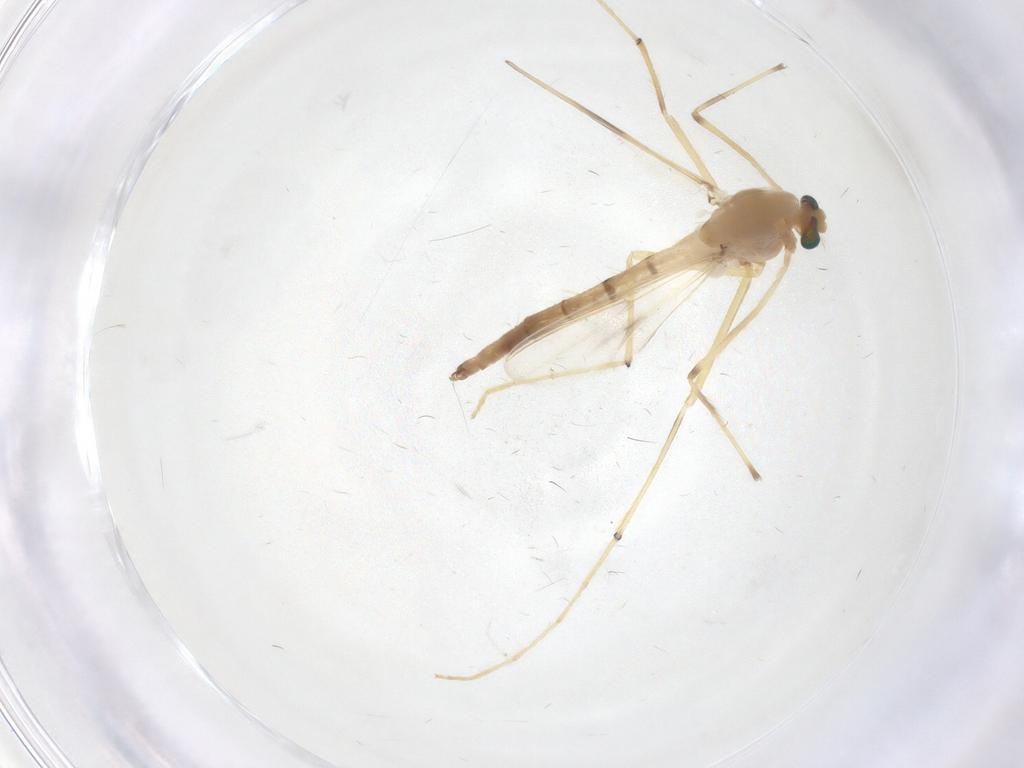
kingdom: Animalia
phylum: Arthropoda
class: Insecta
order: Diptera
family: Chironomidae
